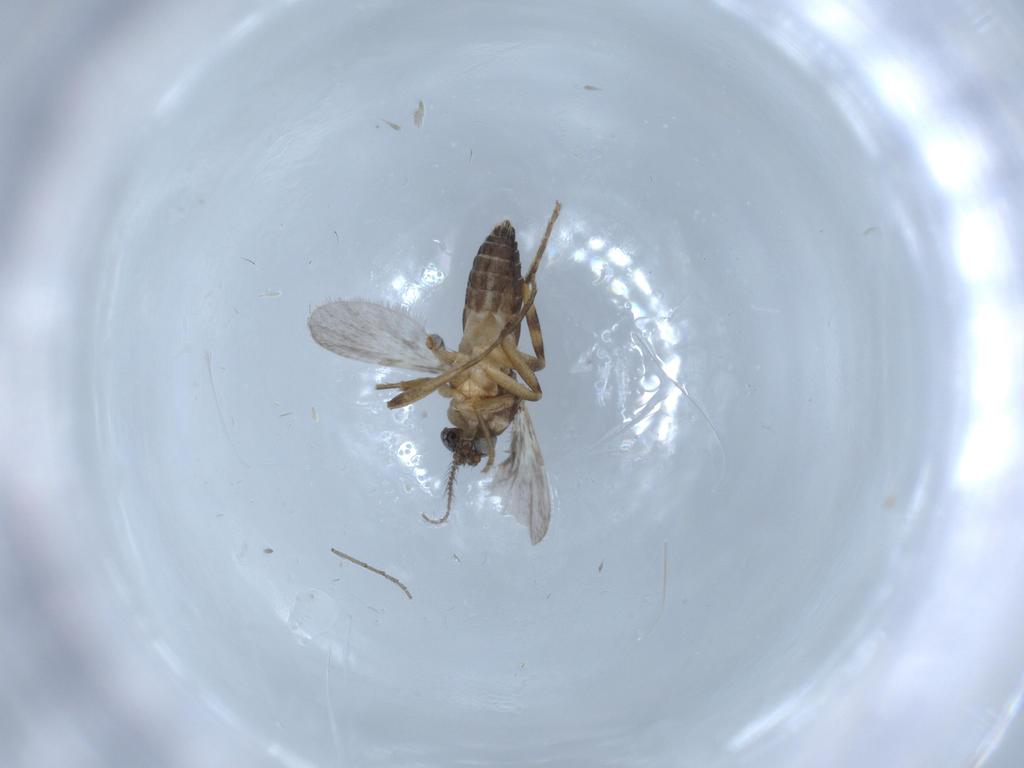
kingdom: Animalia
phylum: Arthropoda
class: Insecta
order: Diptera
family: Ceratopogonidae
